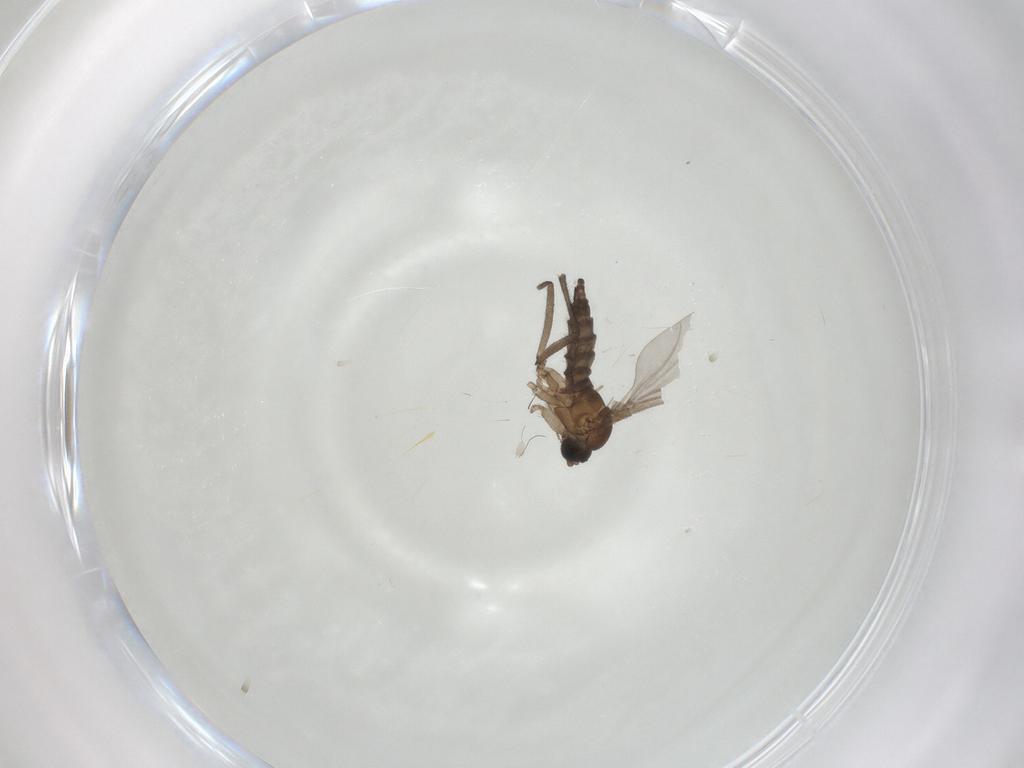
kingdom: Animalia
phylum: Arthropoda
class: Insecta
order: Diptera
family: Sciaridae
